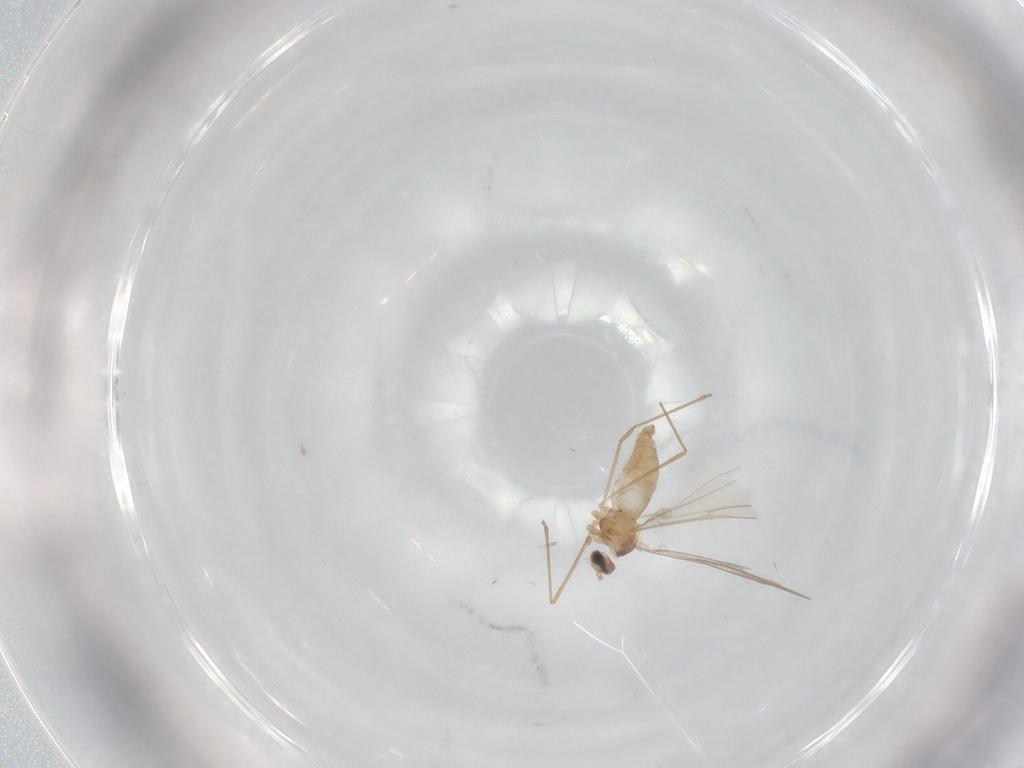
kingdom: Animalia
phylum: Arthropoda
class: Insecta
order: Diptera
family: Cecidomyiidae
